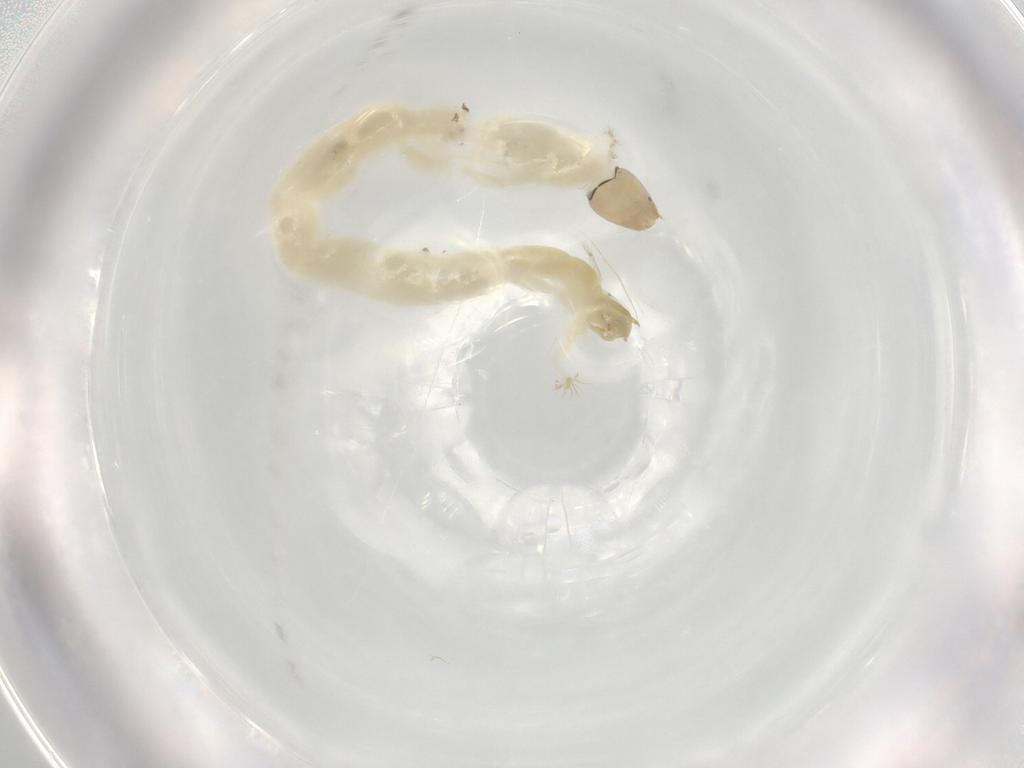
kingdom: Animalia
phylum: Arthropoda
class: Insecta
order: Diptera
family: Chironomidae
